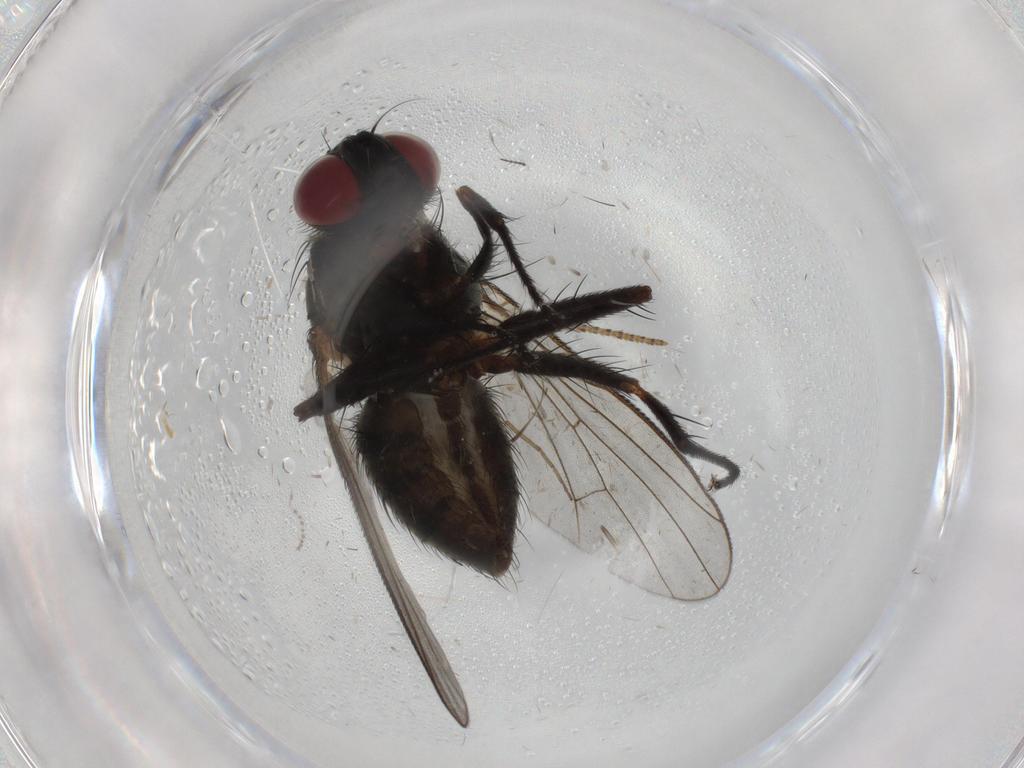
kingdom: Animalia
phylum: Arthropoda
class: Insecta
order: Diptera
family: Muscidae
